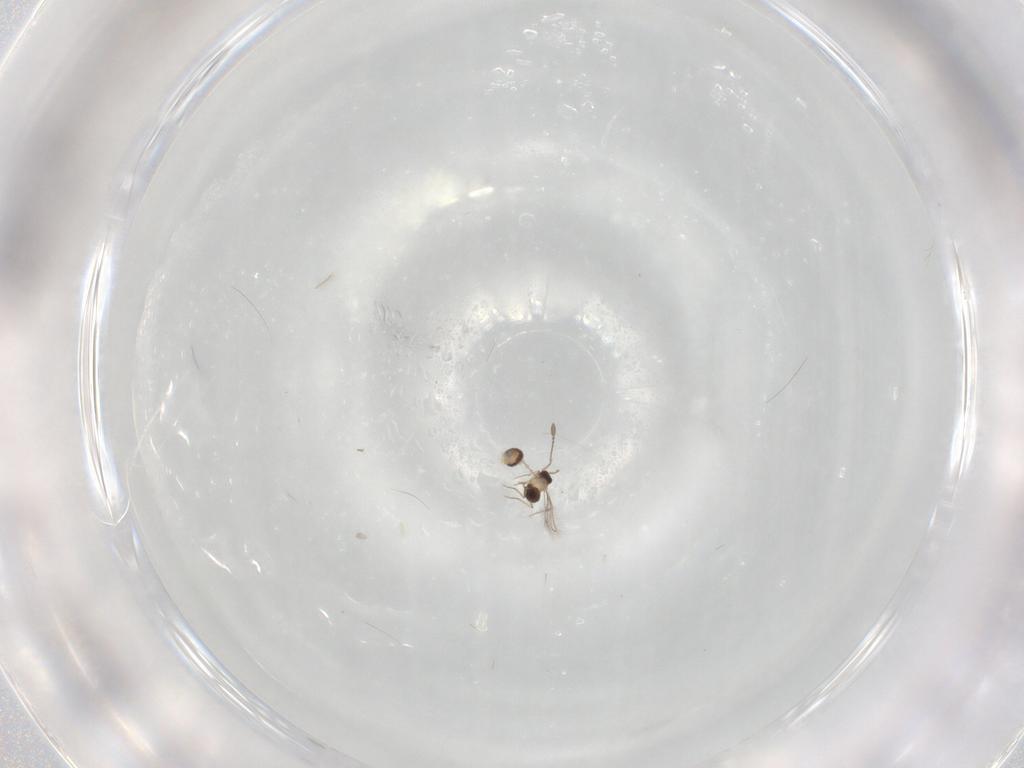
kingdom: Animalia
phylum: Arthropoda
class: Insecta
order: Hymenoptera
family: Mymaridae
